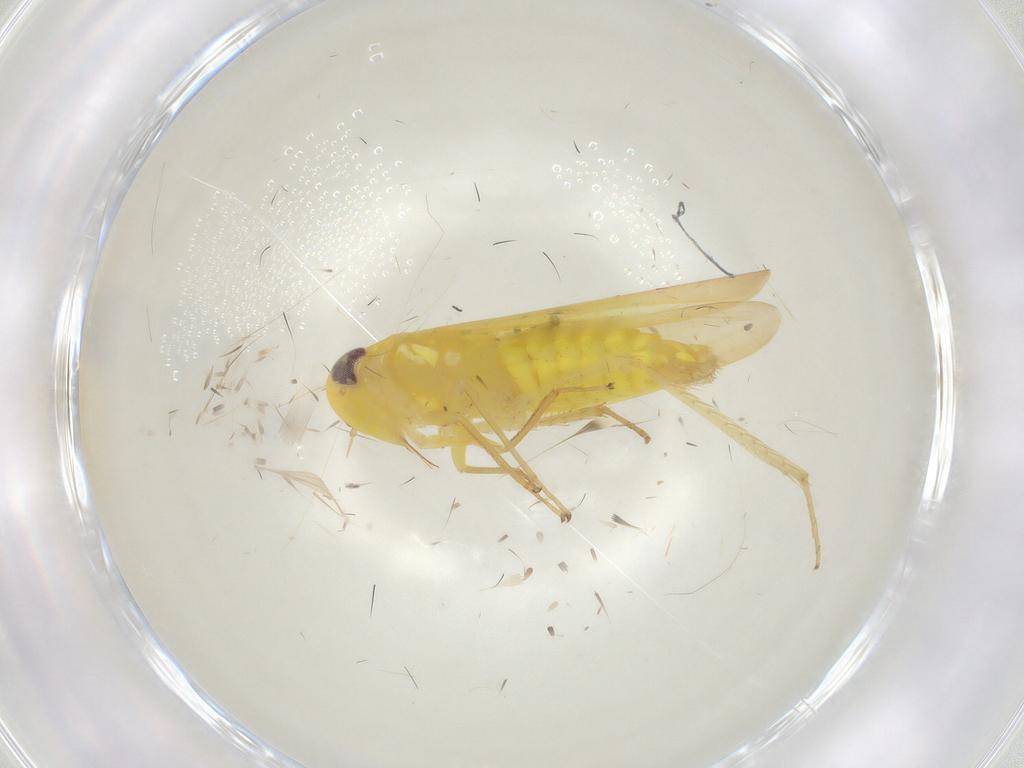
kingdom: Animalia
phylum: Arthropoda
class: Insecta
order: Hemiptera
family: Cicadellidae
